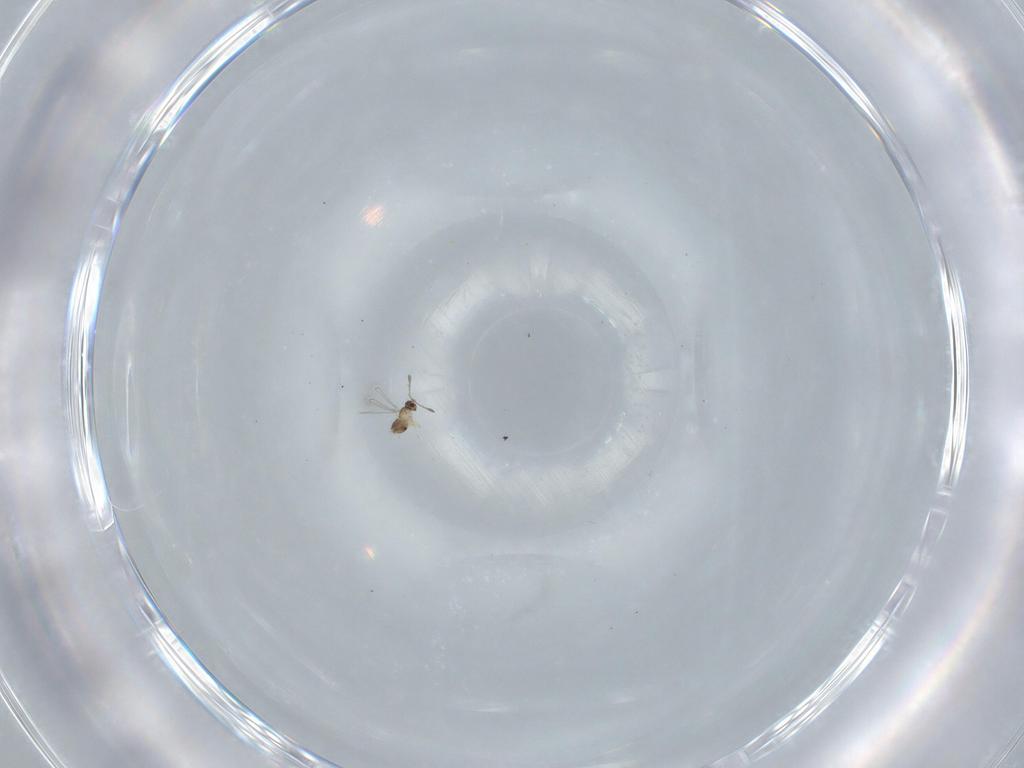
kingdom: Animalia
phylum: Arthropoda
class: Insecta
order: Hymenoptera
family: Mymaridae
